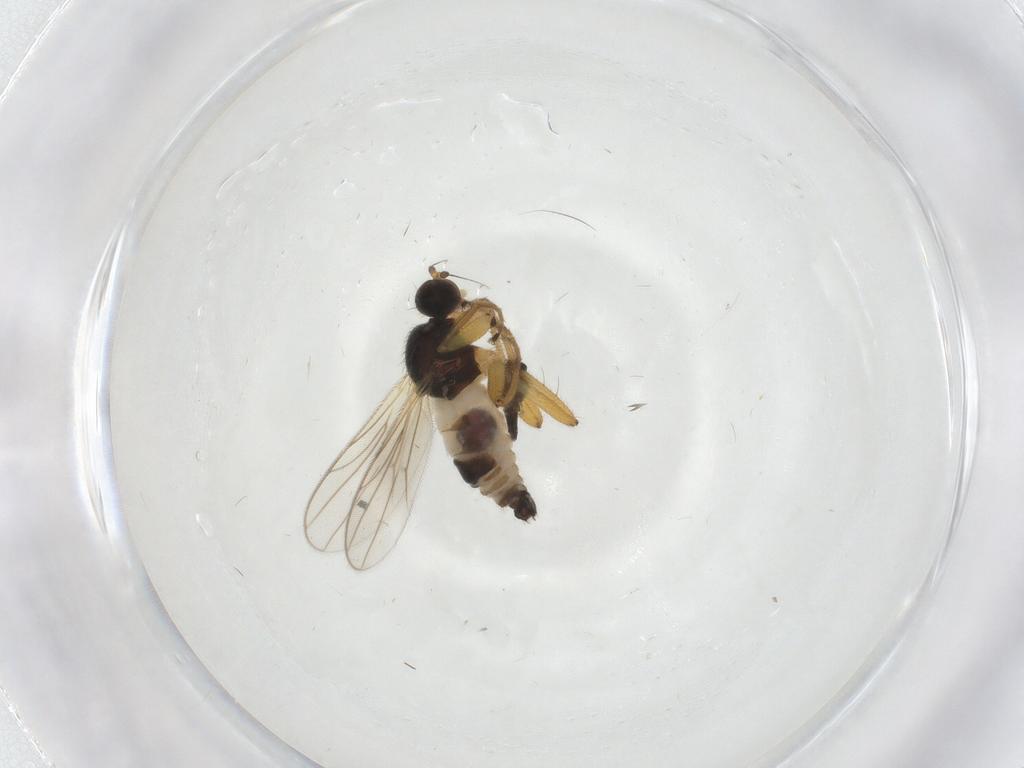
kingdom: Animalia
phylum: Arthropoda
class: Insecta
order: Diptera
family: Hybotidae
